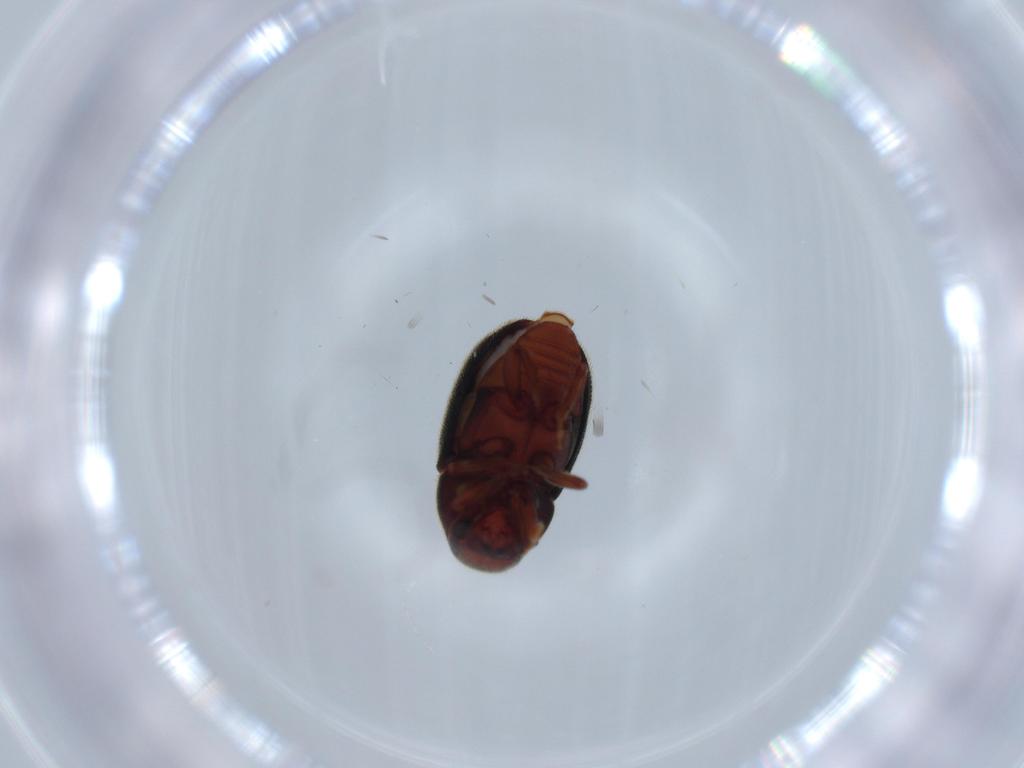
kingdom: Animalia
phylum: Arthropoda
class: Insecta
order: Coleoptera
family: Curculionidae
